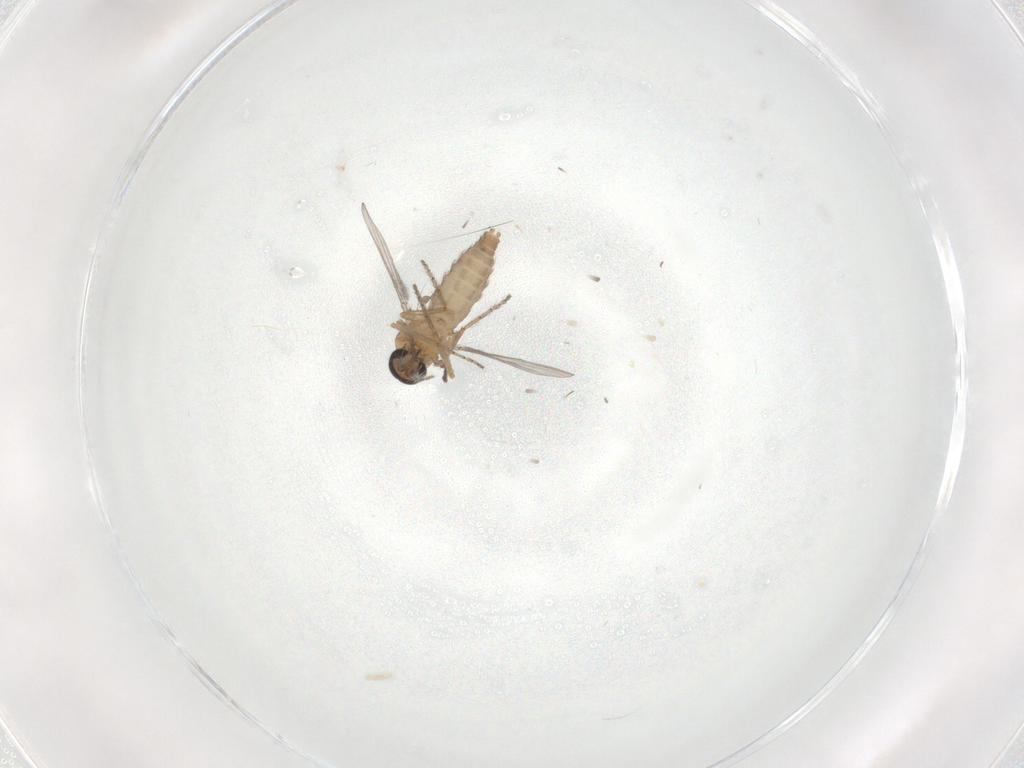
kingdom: Animalia
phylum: Arthropoda
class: Insecta
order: Diptera
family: Ceratopogonidae
